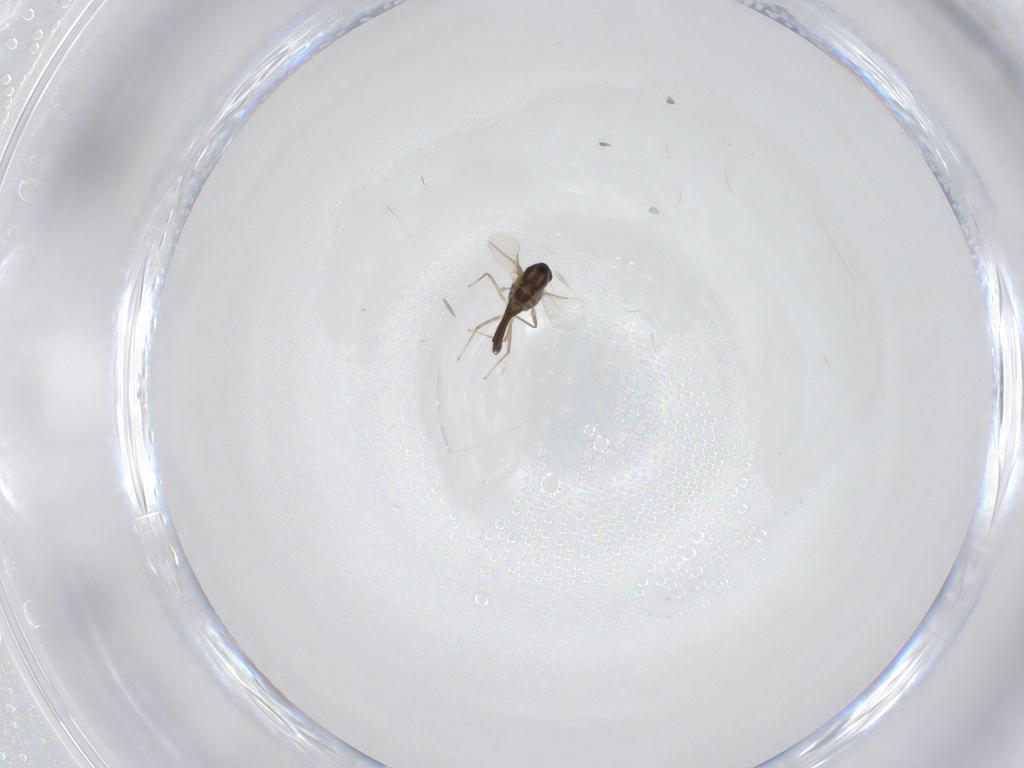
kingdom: Animalia
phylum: Arthropoda
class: Insecta
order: Diptera
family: Chironomidae
